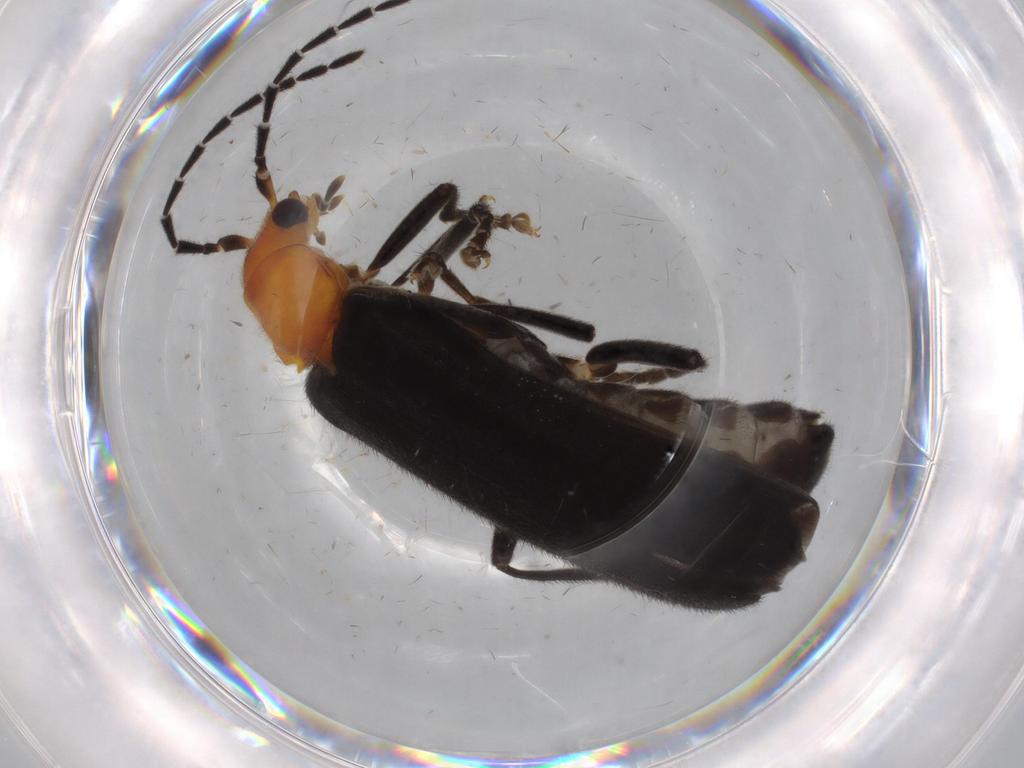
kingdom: Animalia
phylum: Arthropoda
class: Insecta
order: Coleoptera
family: Cantharidae
